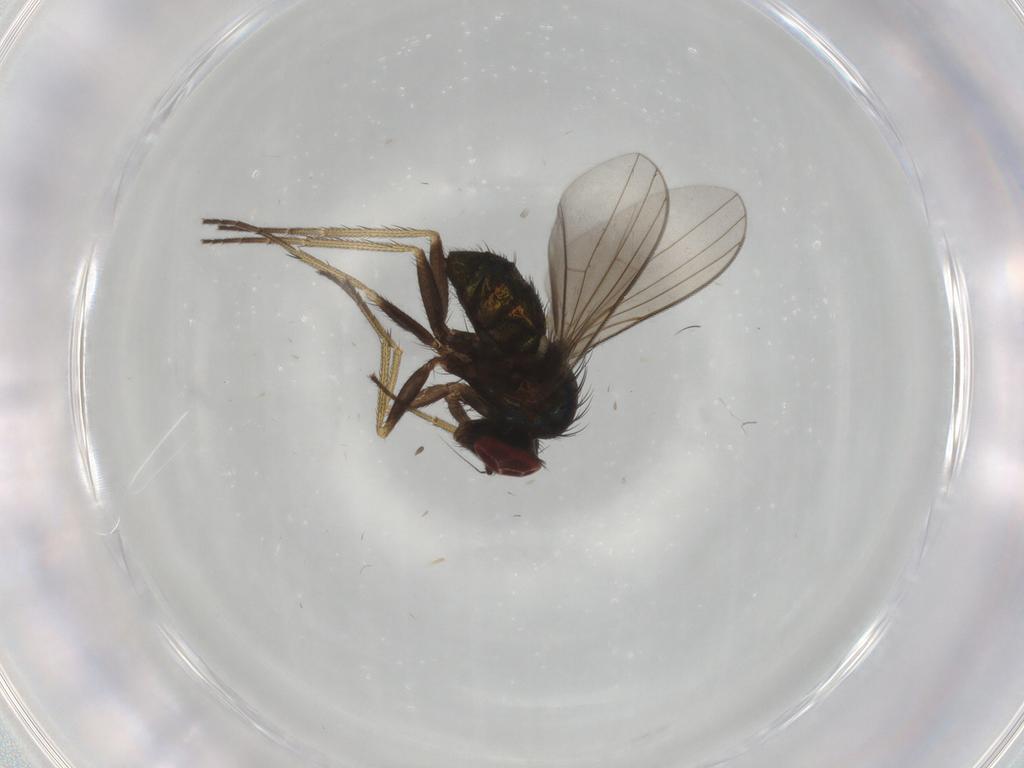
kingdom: Animalia
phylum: Arthropoda
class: Insecta
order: Diptera
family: Dolichopodidae
